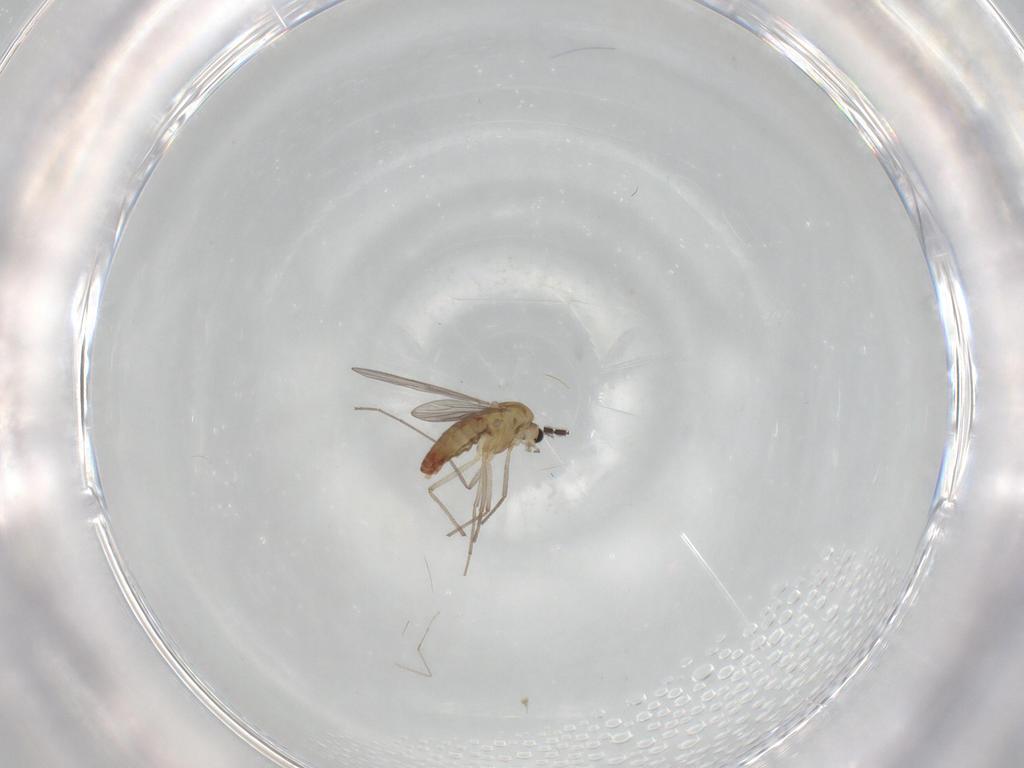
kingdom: Animalia
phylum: Arthropoda
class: Insecta
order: Diptera
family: Chironomidae
